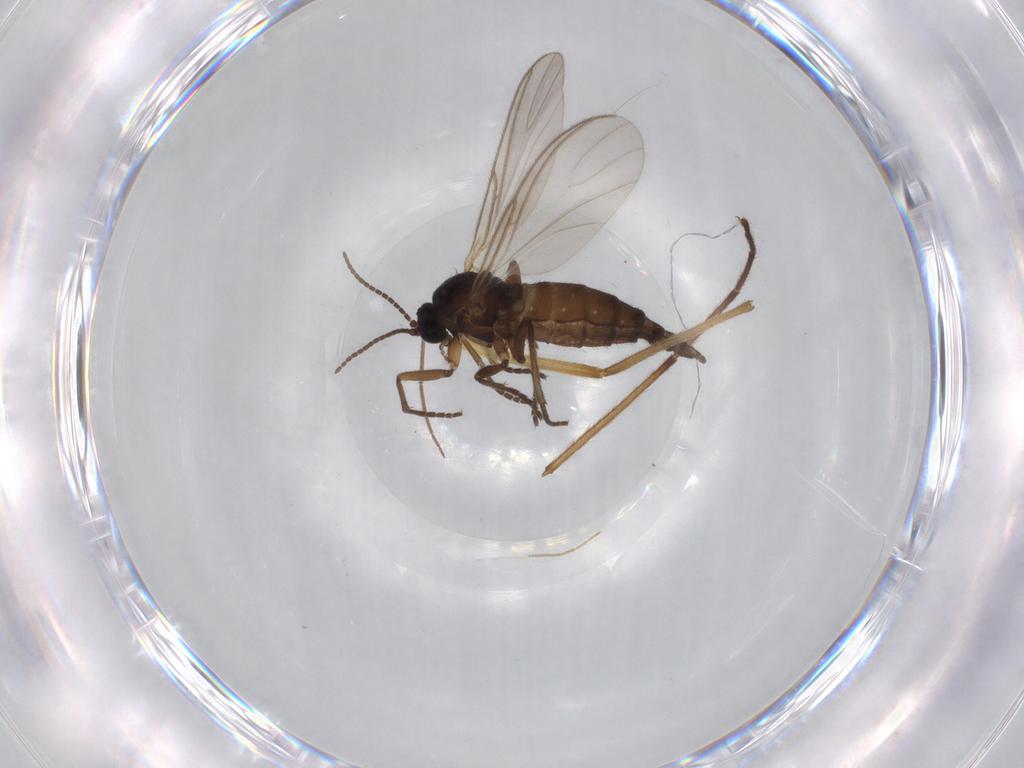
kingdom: Animalia
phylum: Arthropoda
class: Insecta
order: Diptera
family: Sciaridae
